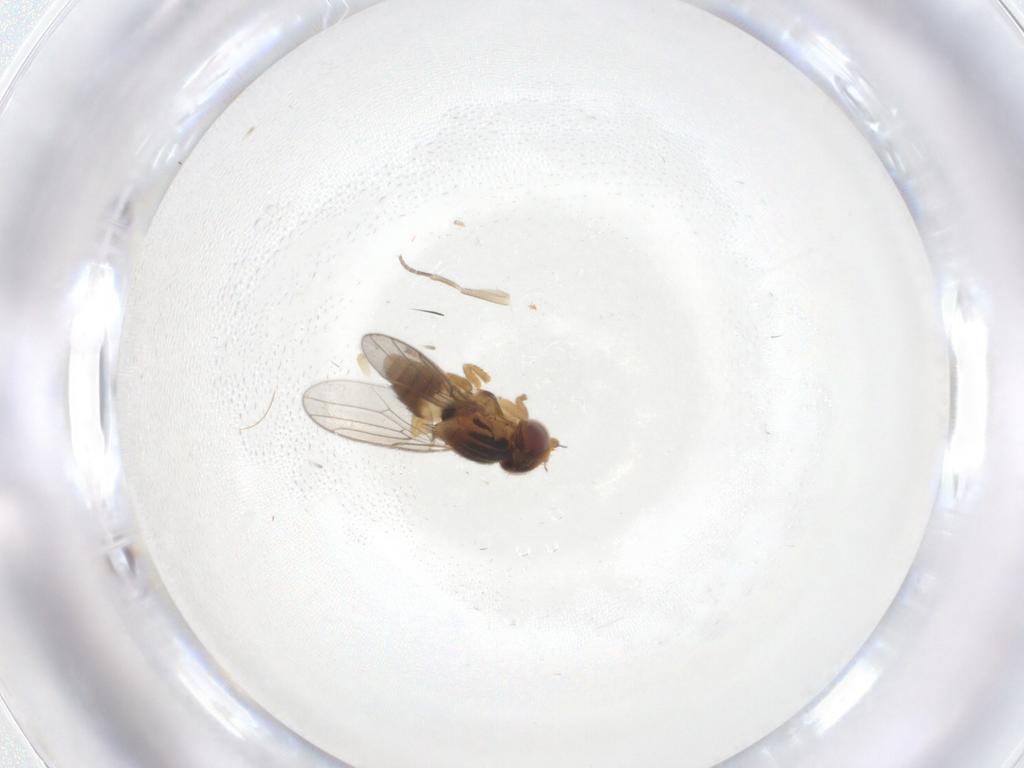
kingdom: Animalia
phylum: Arthropoda
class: Insecta
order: Diptera
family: Chloropidae
